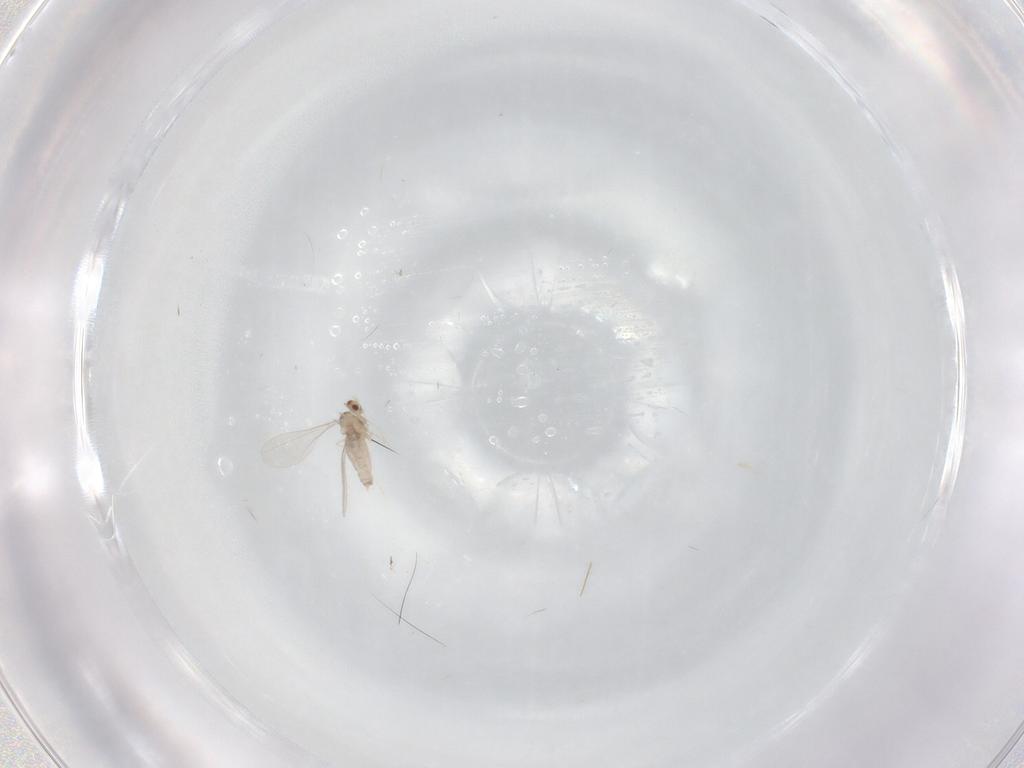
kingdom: Animalia
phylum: Arthropoda
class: Insecta
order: Diptera
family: Cecidomyiidae
